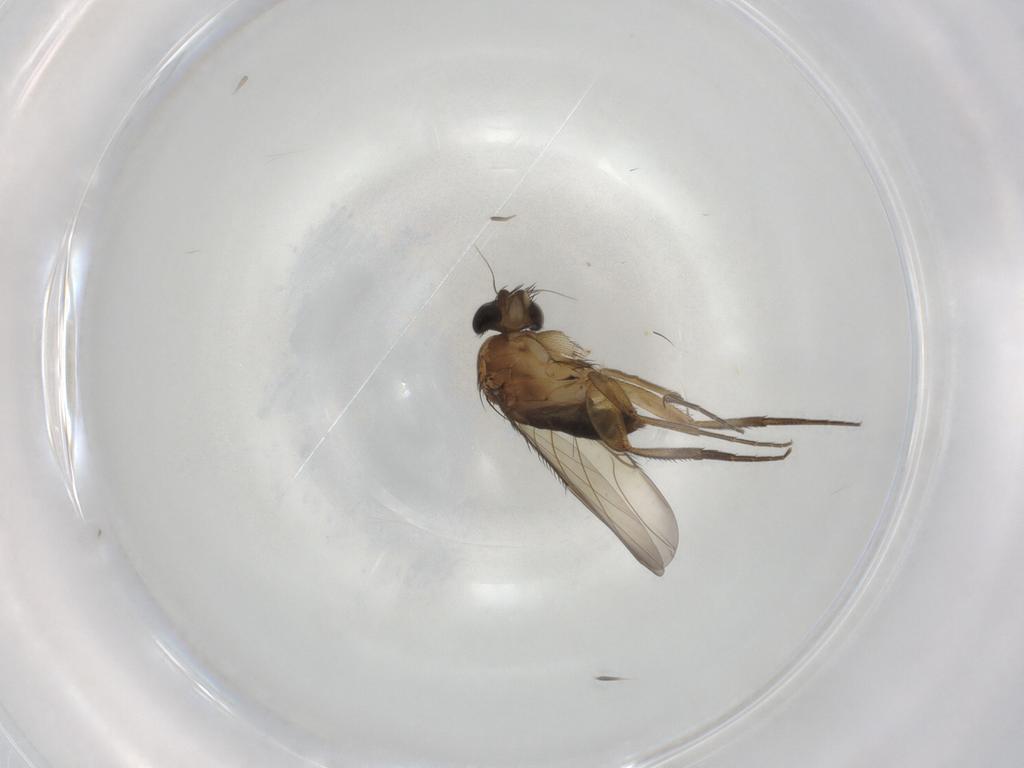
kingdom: Animalia
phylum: Arthropoda
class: Insecta
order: Diptera
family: Phoridae
